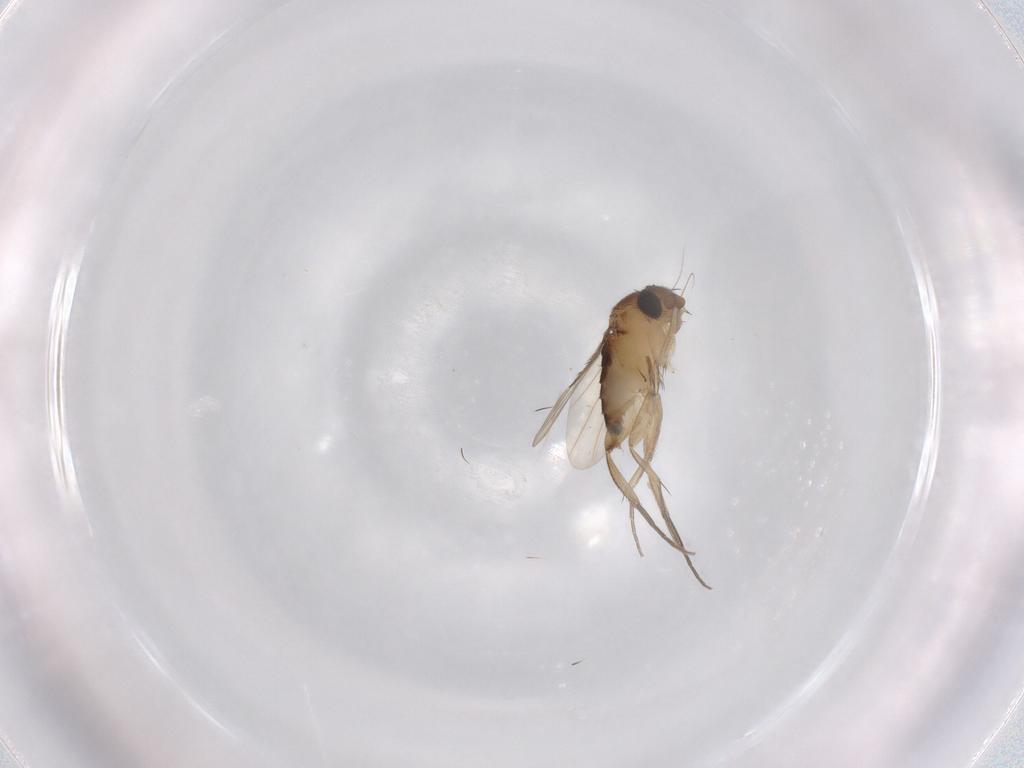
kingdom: Animalia
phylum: Arthropoda
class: Insecta
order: Diptera
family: Phoridae
